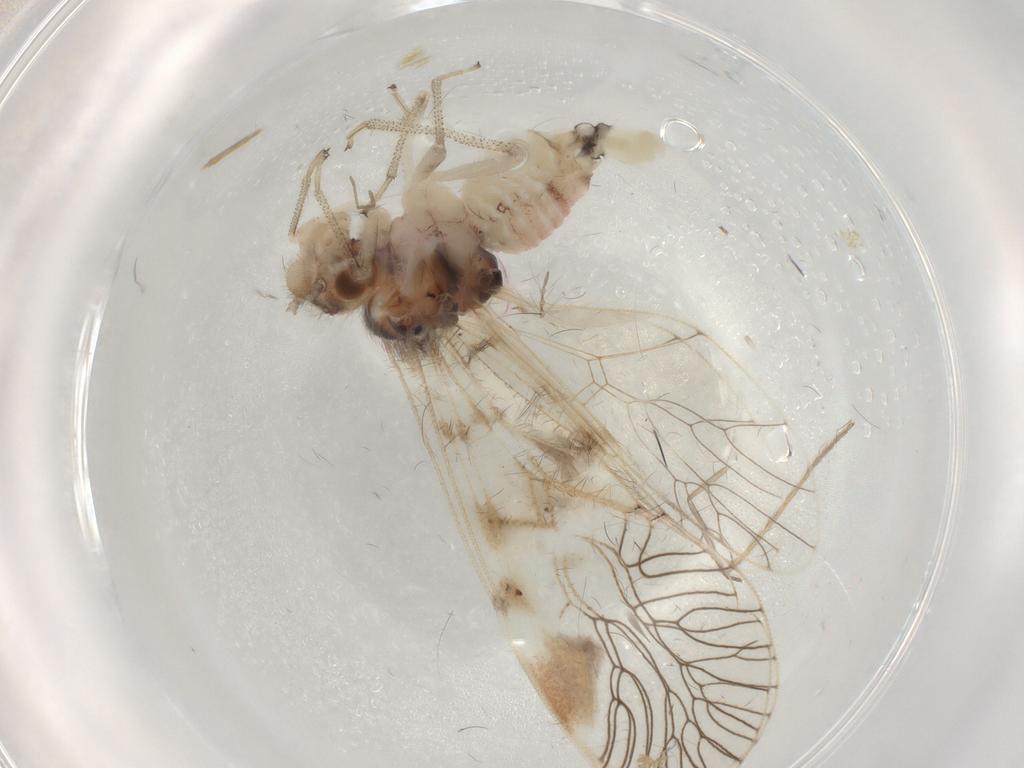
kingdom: Animalia
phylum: Arthropoda
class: Insecta
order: Psocodea
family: Amphipsocidae
